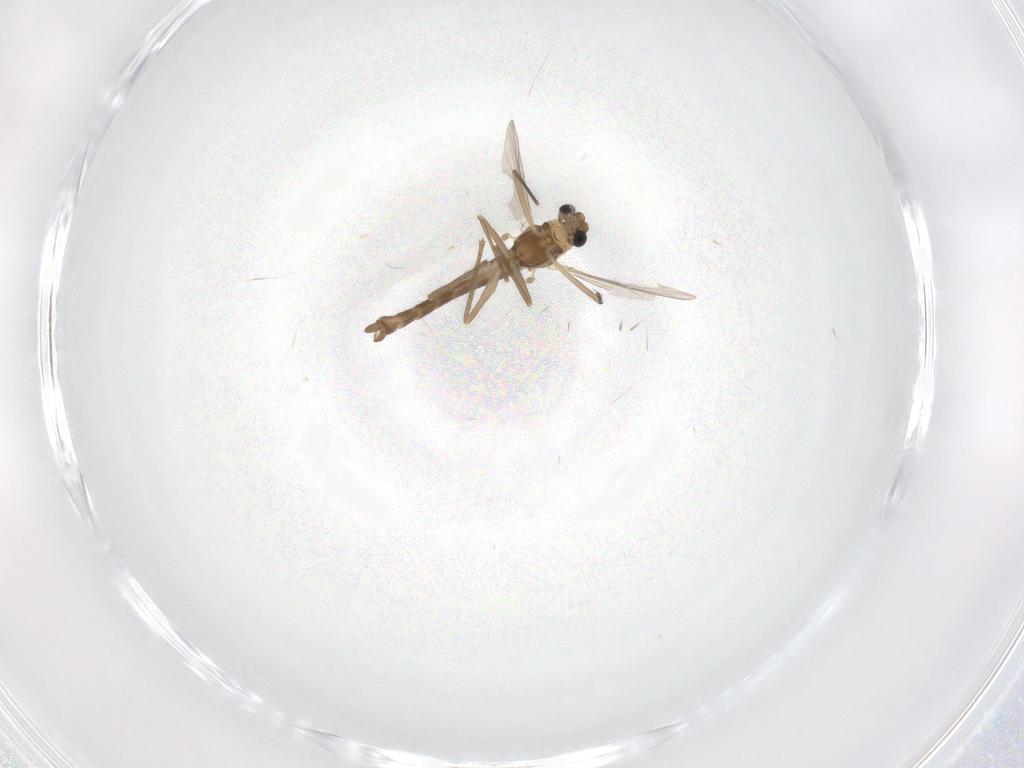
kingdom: Animalia
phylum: Arthropoda
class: Insecta
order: Diptera
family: Chironomidae
